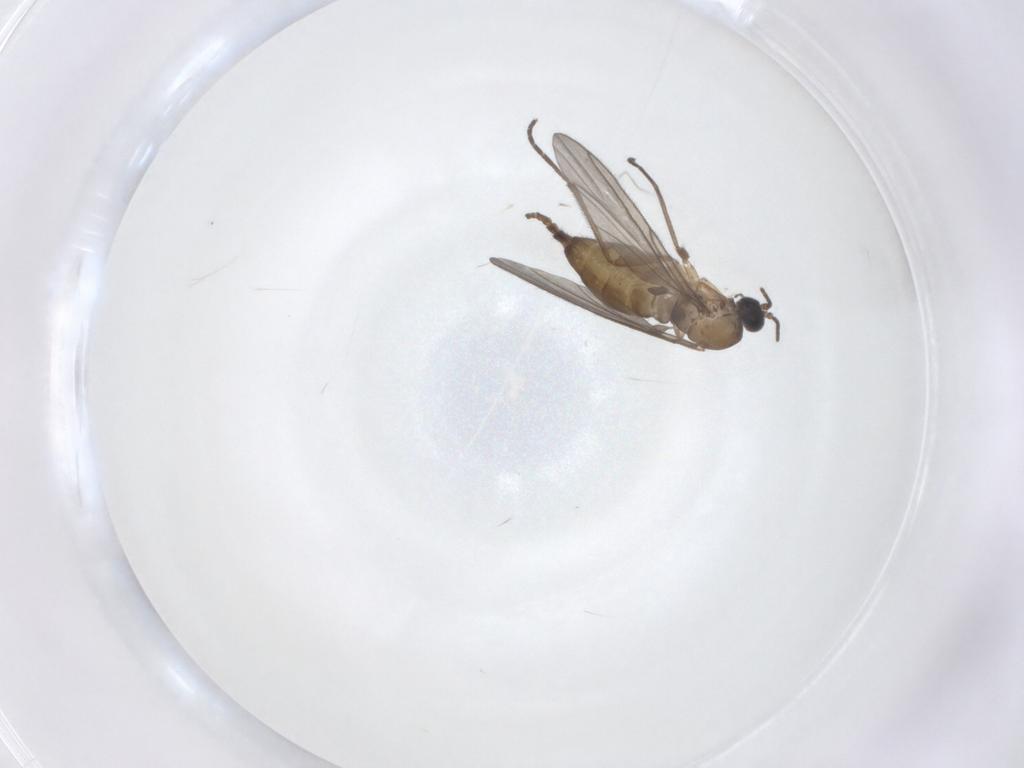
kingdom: Animalia
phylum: Arthropoda
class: Insecta
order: Diptera
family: Sciaridae
